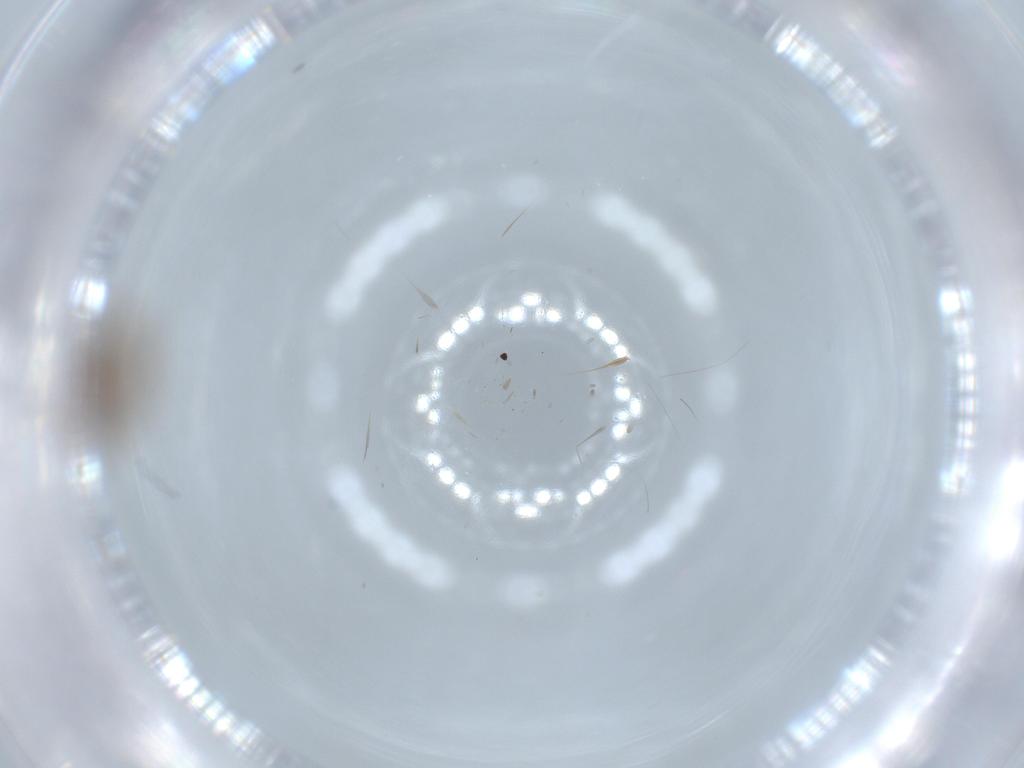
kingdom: Animalia
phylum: Arthropoda
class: Insecta
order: Hymenoptera
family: Scelionidae
